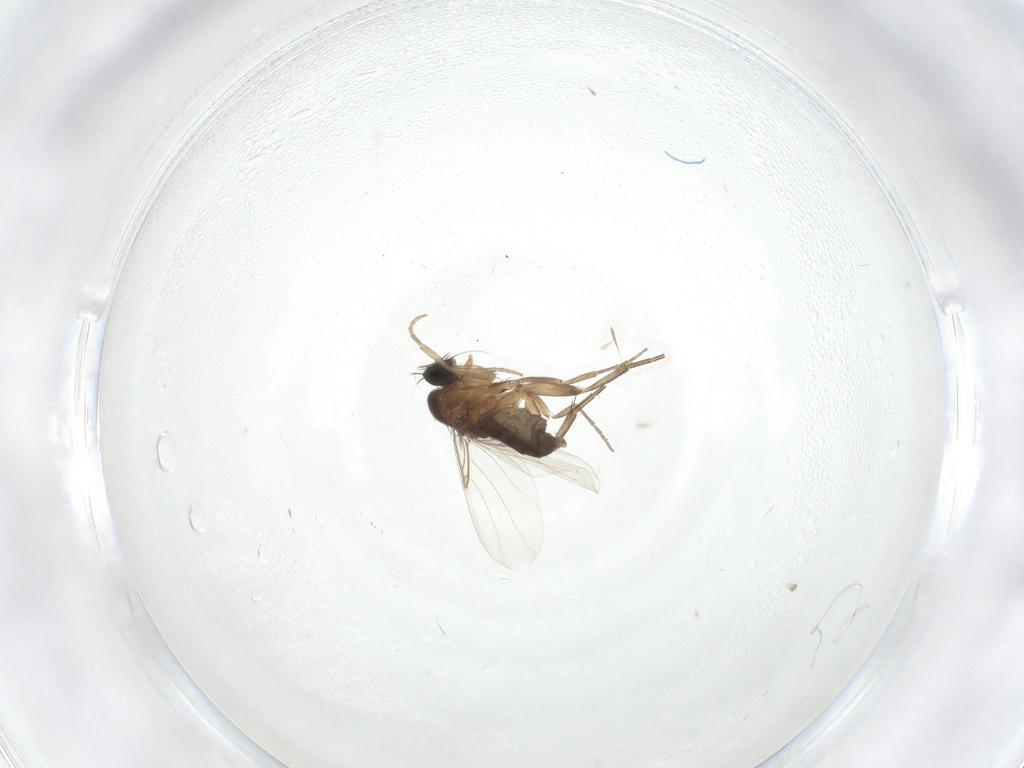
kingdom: Animalia
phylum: Arthropoda
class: Insecta
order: Diptera
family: Phoridae
